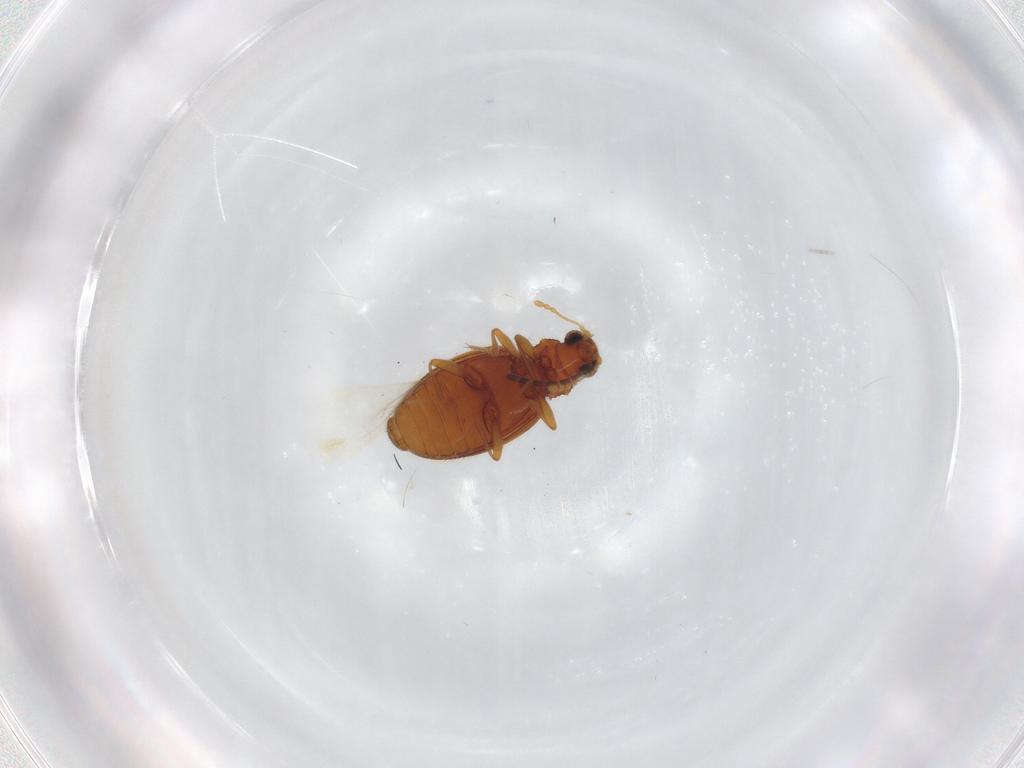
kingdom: Animalia
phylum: Arthropoda
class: Insecta
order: Coleoptera
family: Latridiidae
